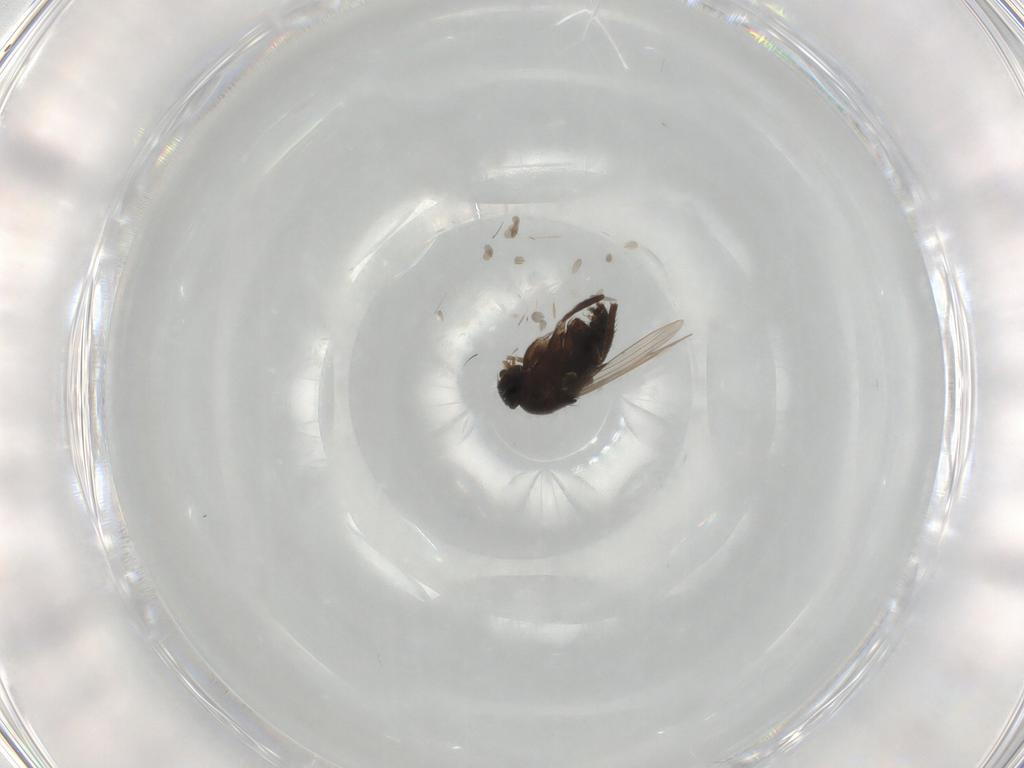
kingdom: Animalia
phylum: Arthropoda
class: Insecta
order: Diptera
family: Phoridae
